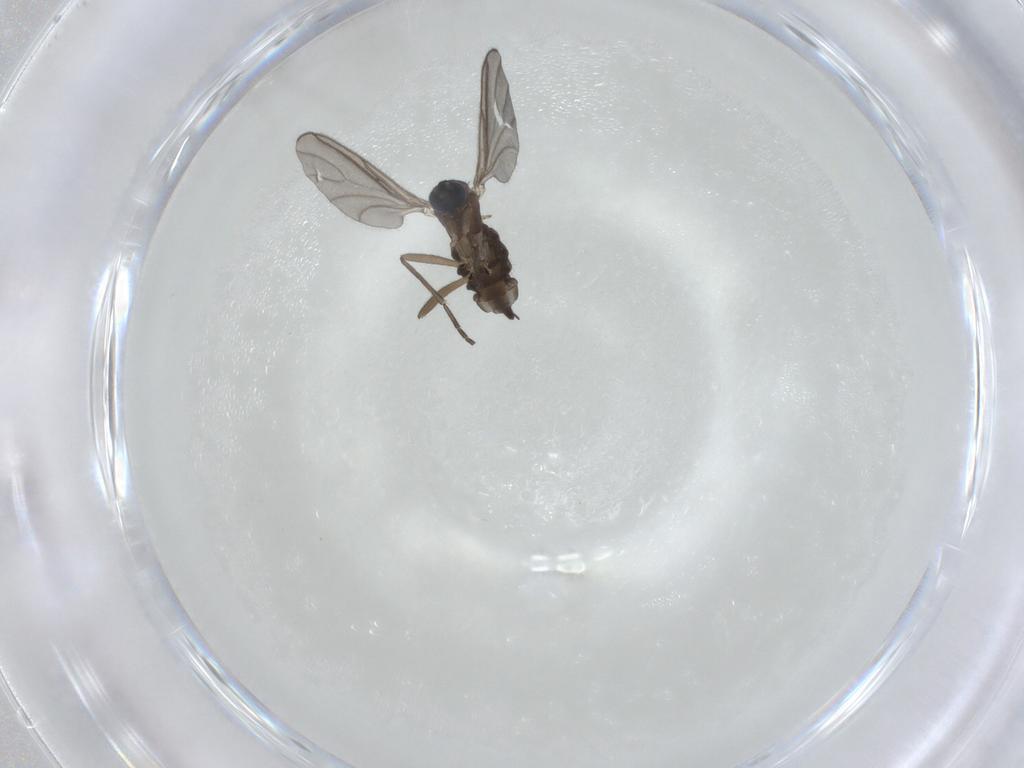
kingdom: Animalia
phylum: Arthropoda
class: Insecta
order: Diptera
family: Sciaridae
